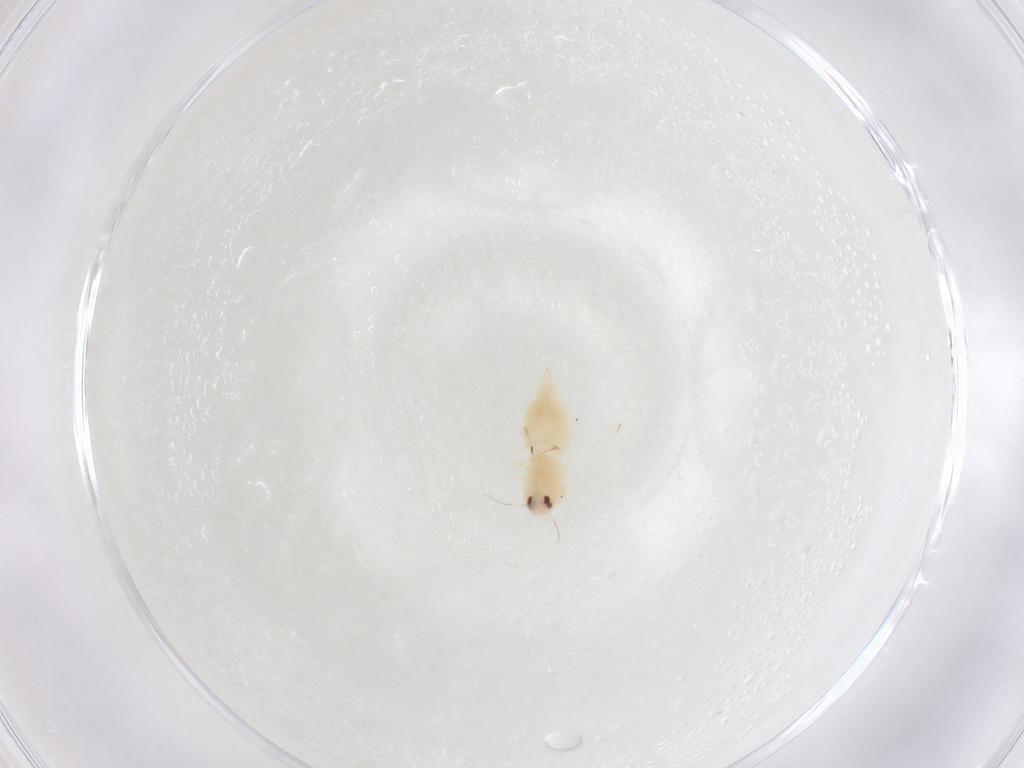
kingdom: Animalia
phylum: Arthropoda
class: Insecta
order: Hemiptera
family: Aleyrodidae
